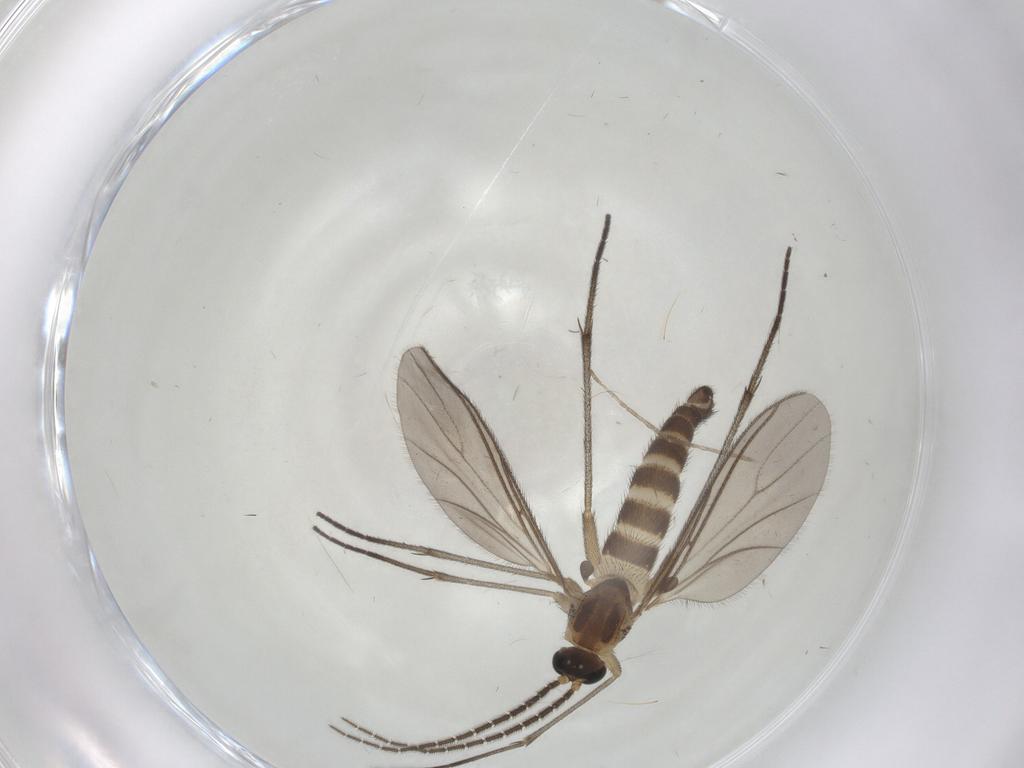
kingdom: Animalia
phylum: Arthropoda
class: Insecta
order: Diptera
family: Sciaridae
